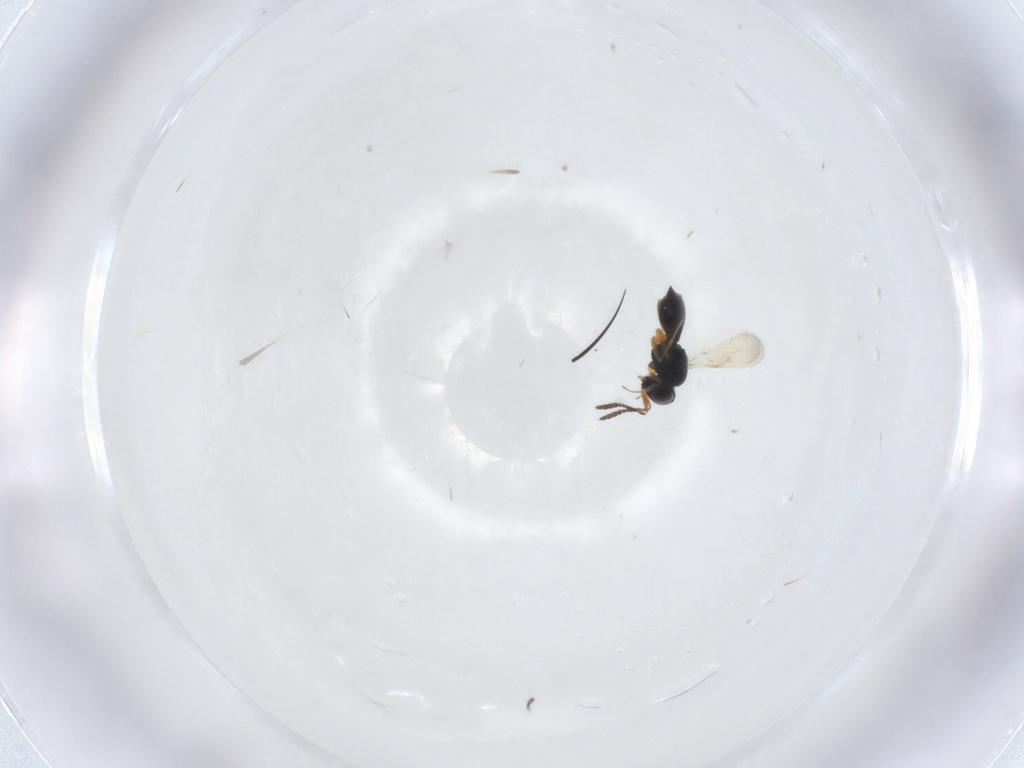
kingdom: Animalia
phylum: Arthropoda
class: Insecta
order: Hymenoptera
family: Scelionidae
